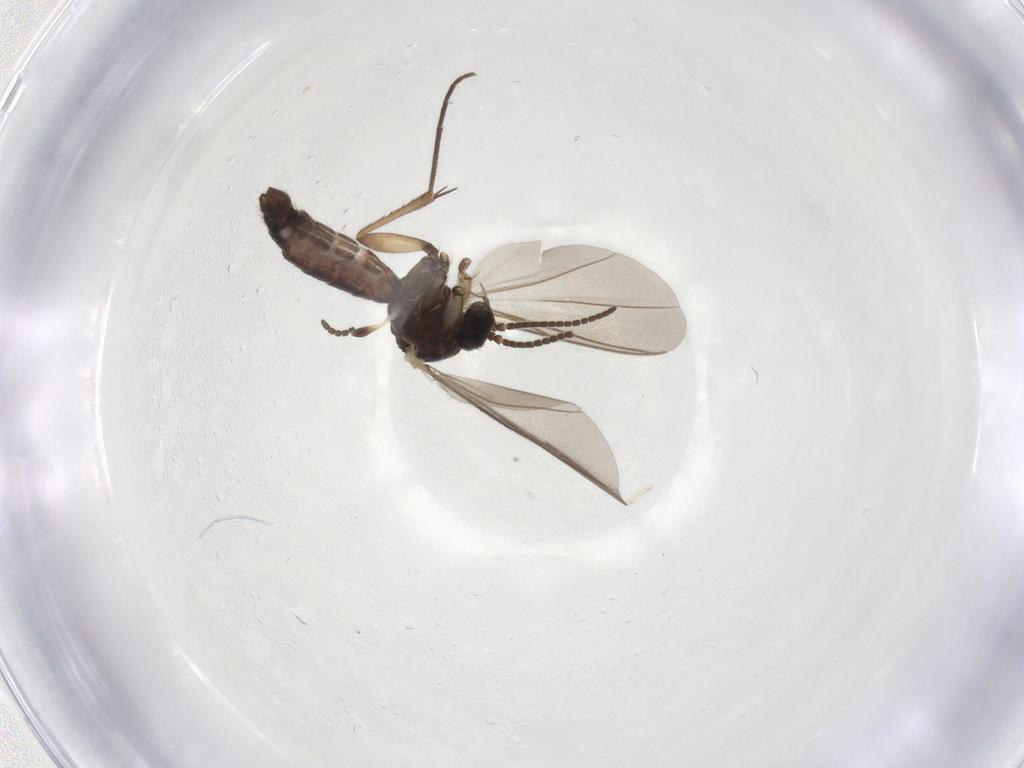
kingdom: Animalia
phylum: Arthropoda
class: Insecta
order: Diptera
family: Mycetophilidae
